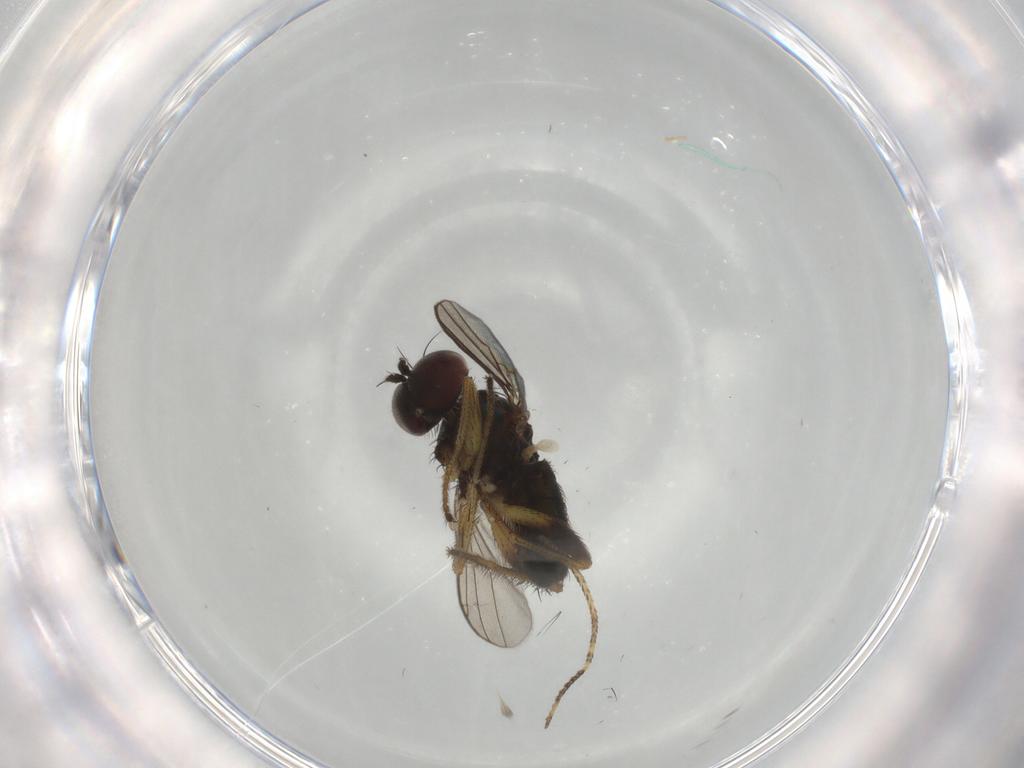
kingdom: Animalia
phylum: Arthropoda
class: Insecta
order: Diptera
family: Dolichopodidae
